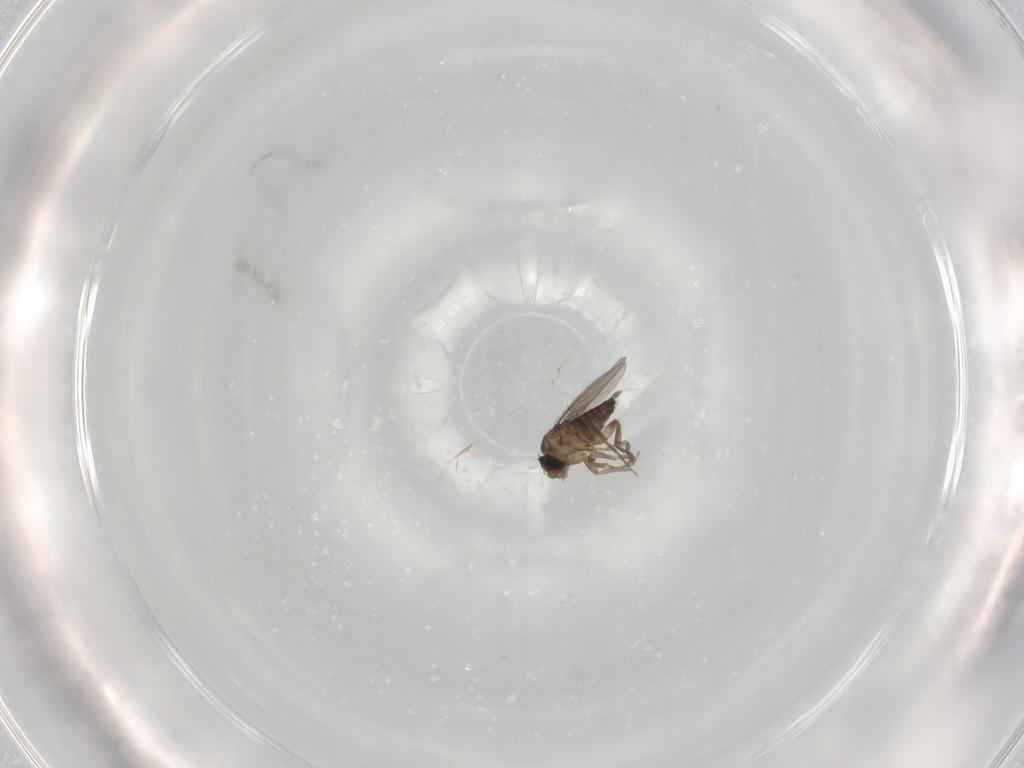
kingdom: Animalia
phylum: Arthropoda
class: Insecta
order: Diptera
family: Phoridae
